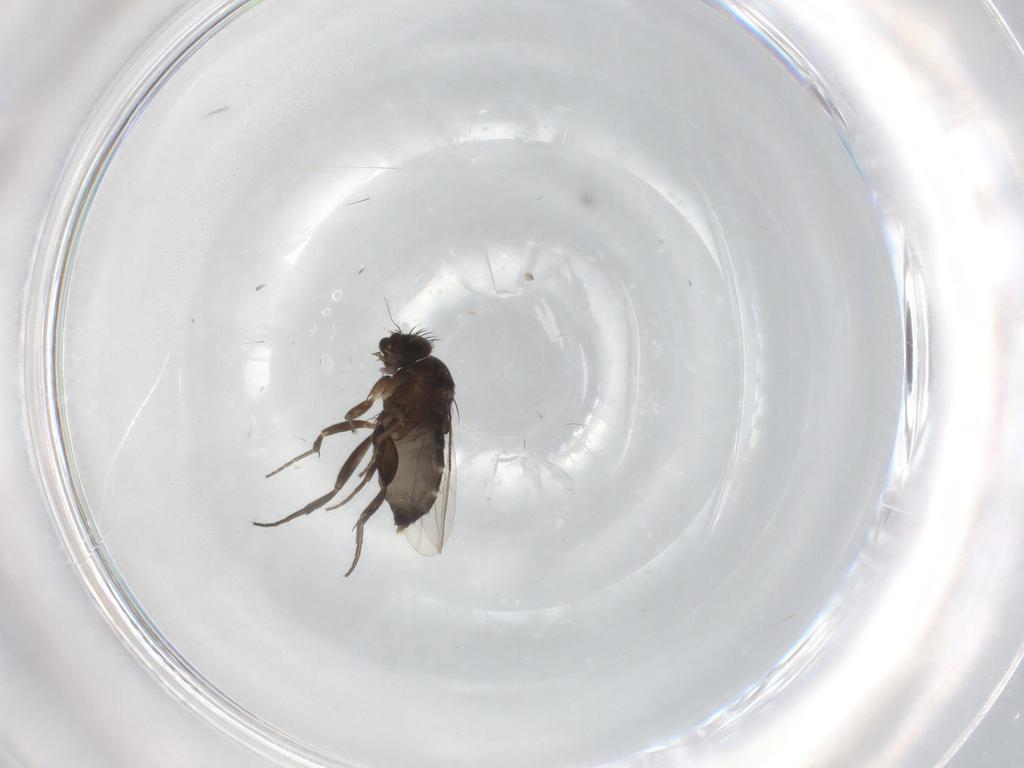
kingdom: Animalia
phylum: Arthropoda
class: Insecta
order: Diptera
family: Phoridae
